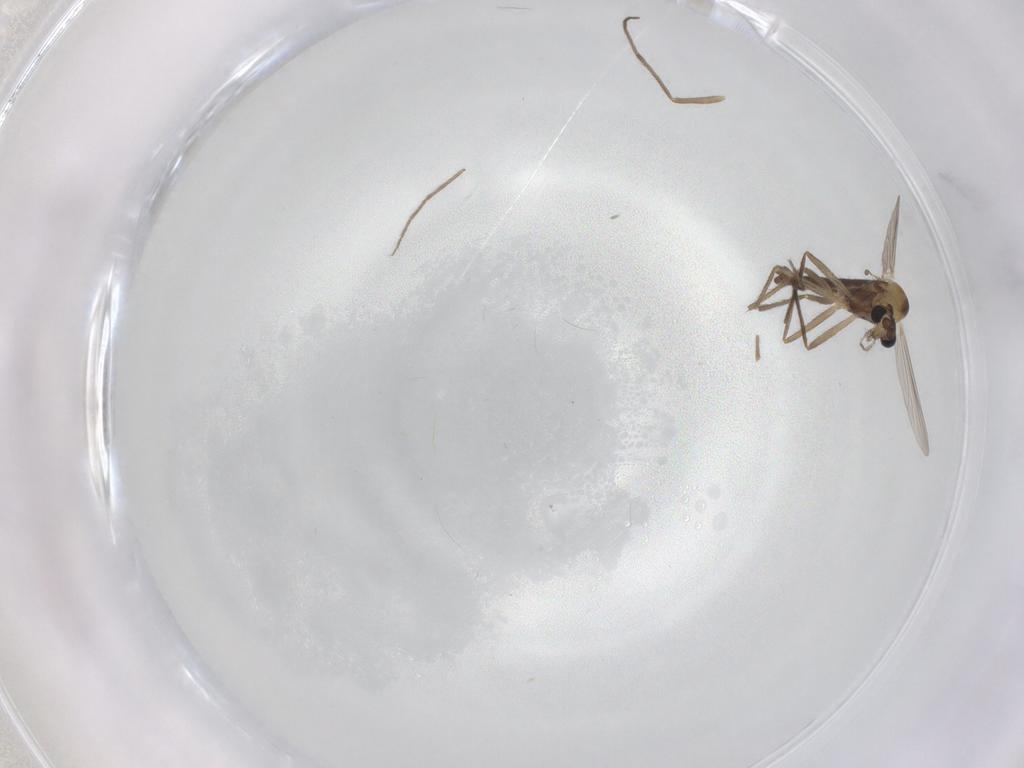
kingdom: Animalia
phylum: Arthropoda
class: Insecta
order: Diptera
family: Chironomidae
